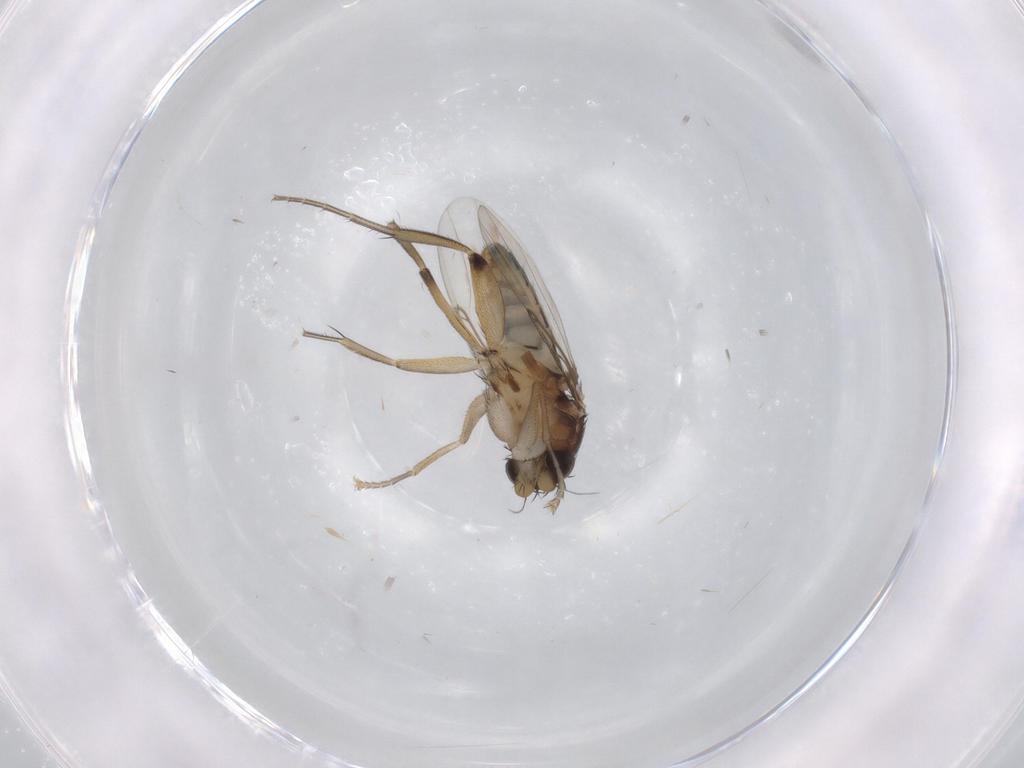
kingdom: Animalia
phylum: Arthropoda
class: Insecta
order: Diptera
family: Phoridae
